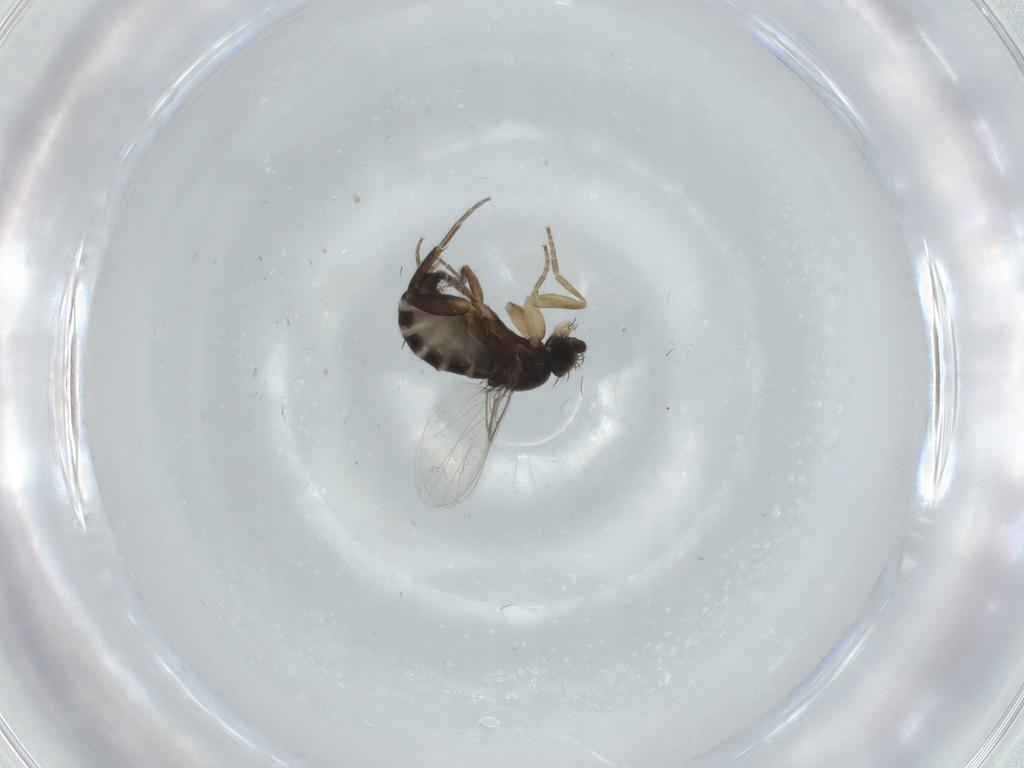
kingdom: Animalia
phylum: Arthropoda
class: Insecta
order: Diptera
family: Phoridae
